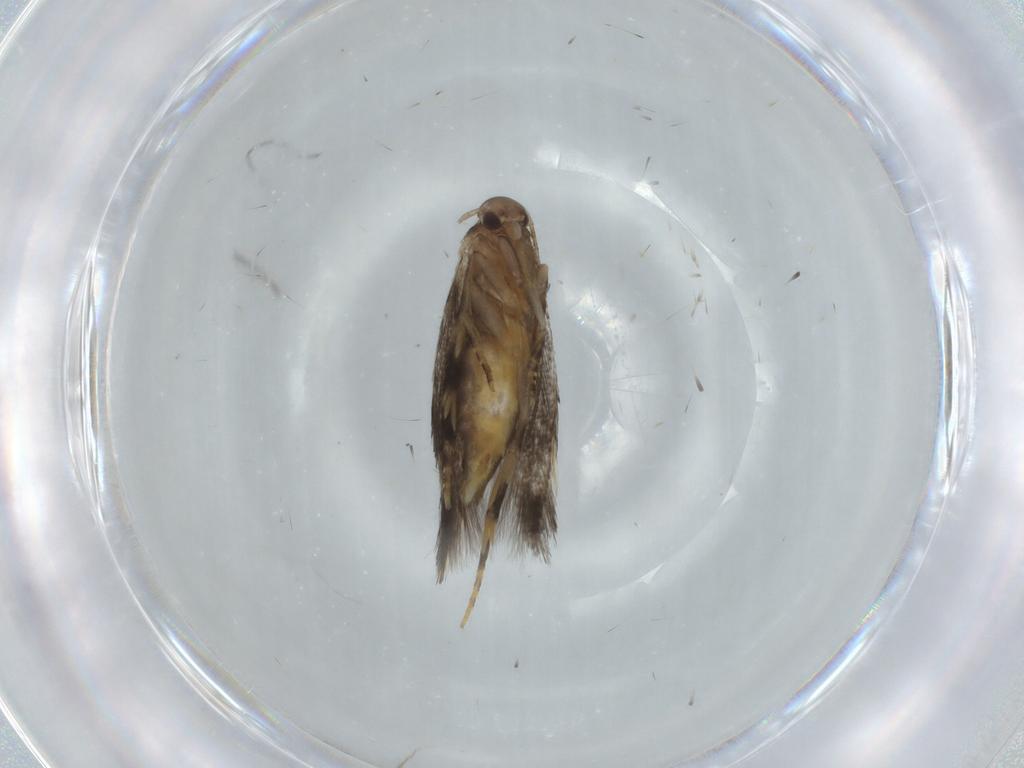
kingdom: Animalia
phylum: Arthropoda
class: Insecta
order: Lepidoptera
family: Elachistidae
